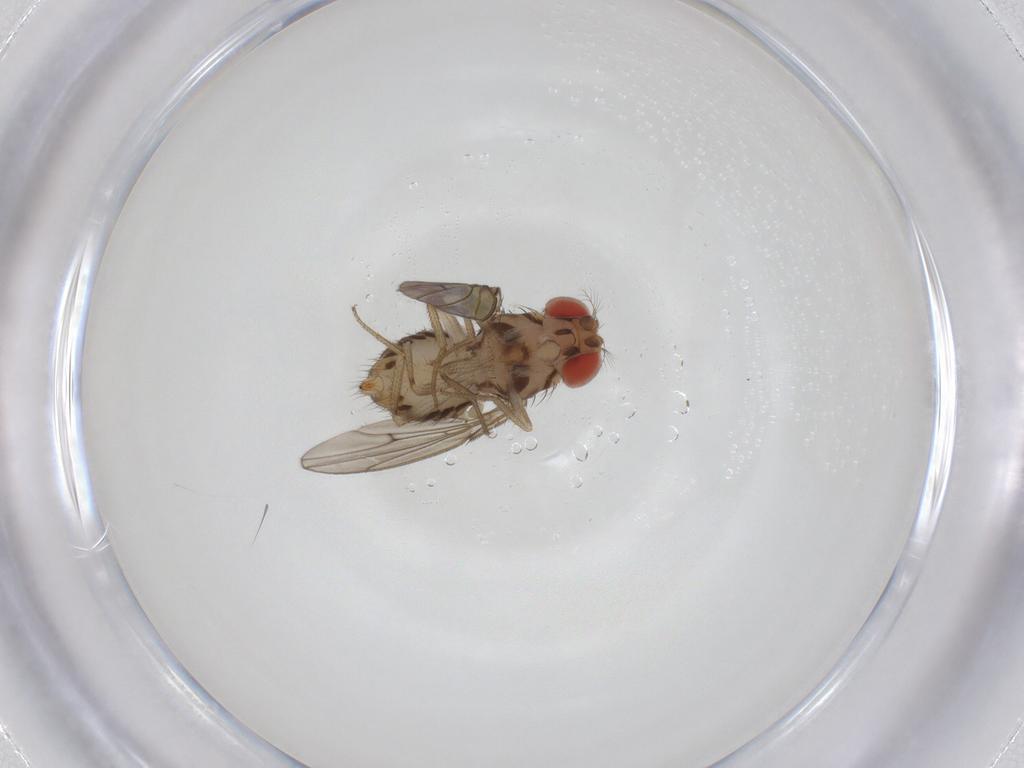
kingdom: Animalia
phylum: Arthropoda
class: Insecta
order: Diptera
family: Drosophilidae
